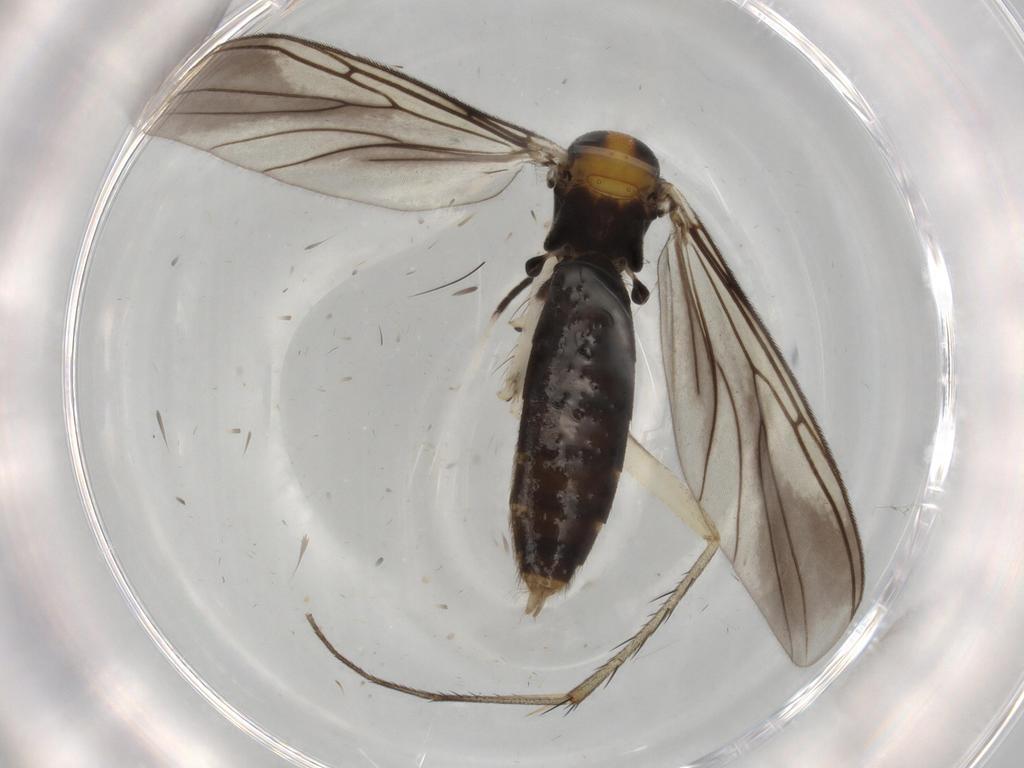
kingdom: Animalia
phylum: Arthropoda
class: Insecta
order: Diptera
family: Mycetophilidae
